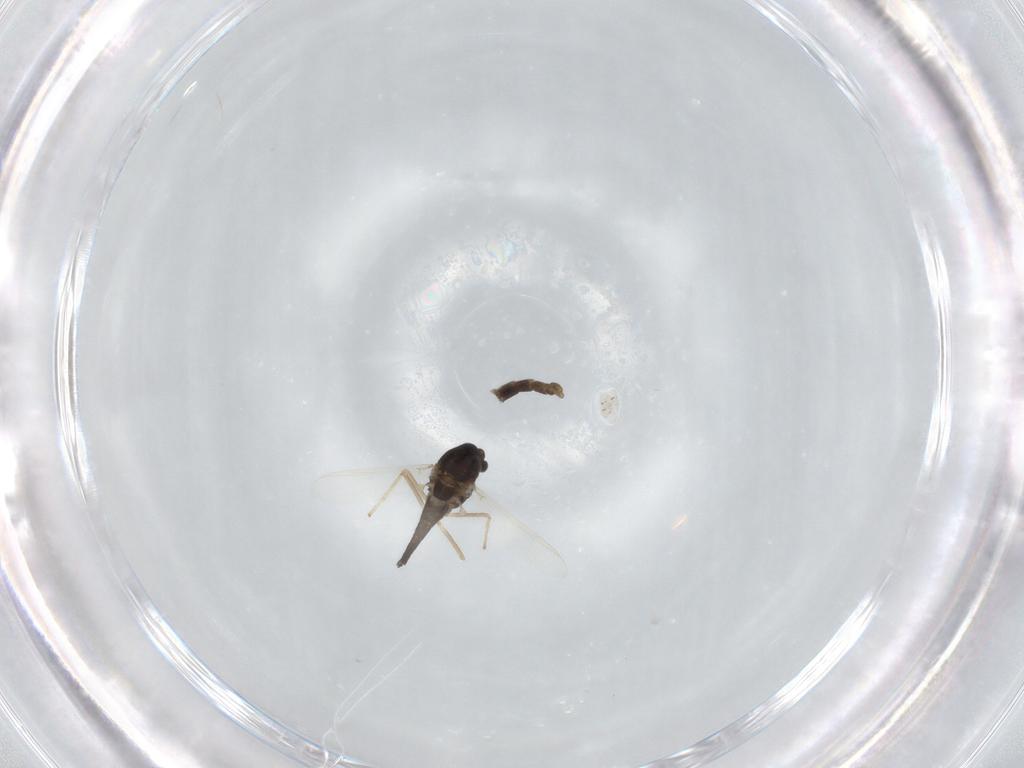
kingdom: Animalia
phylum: Arthropoda
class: Insecta
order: Diptera
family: Chironomidae
